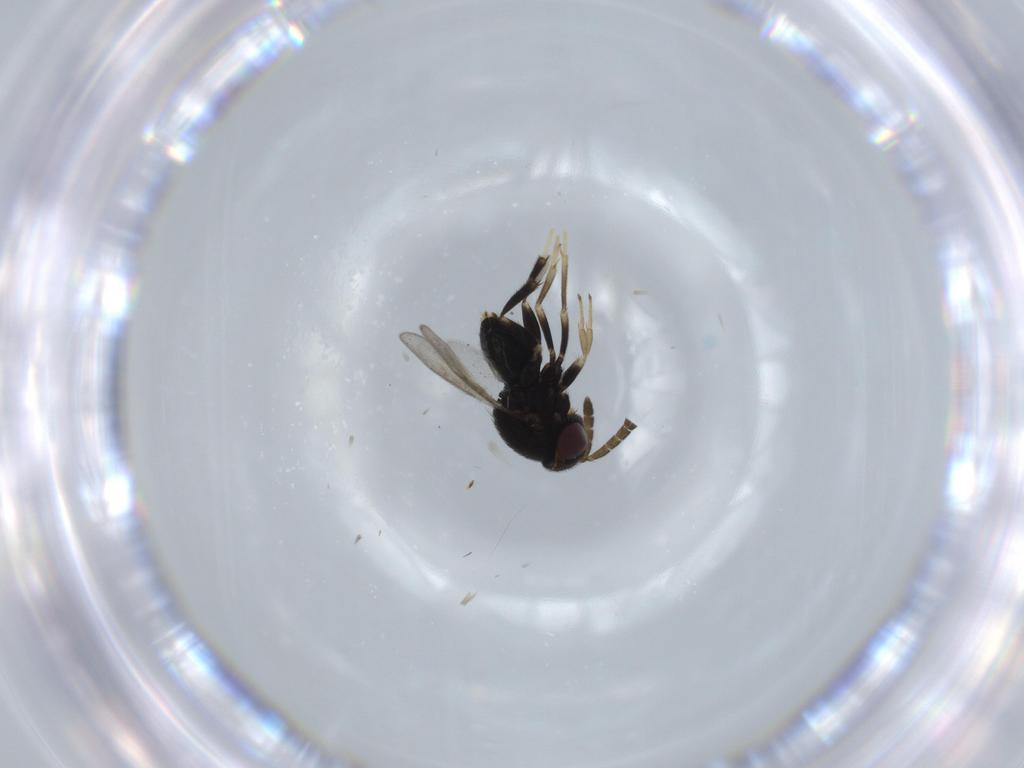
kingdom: Animalia
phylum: Arthropoda
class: Insecta
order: Hymenoptera
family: Aphelinidae
